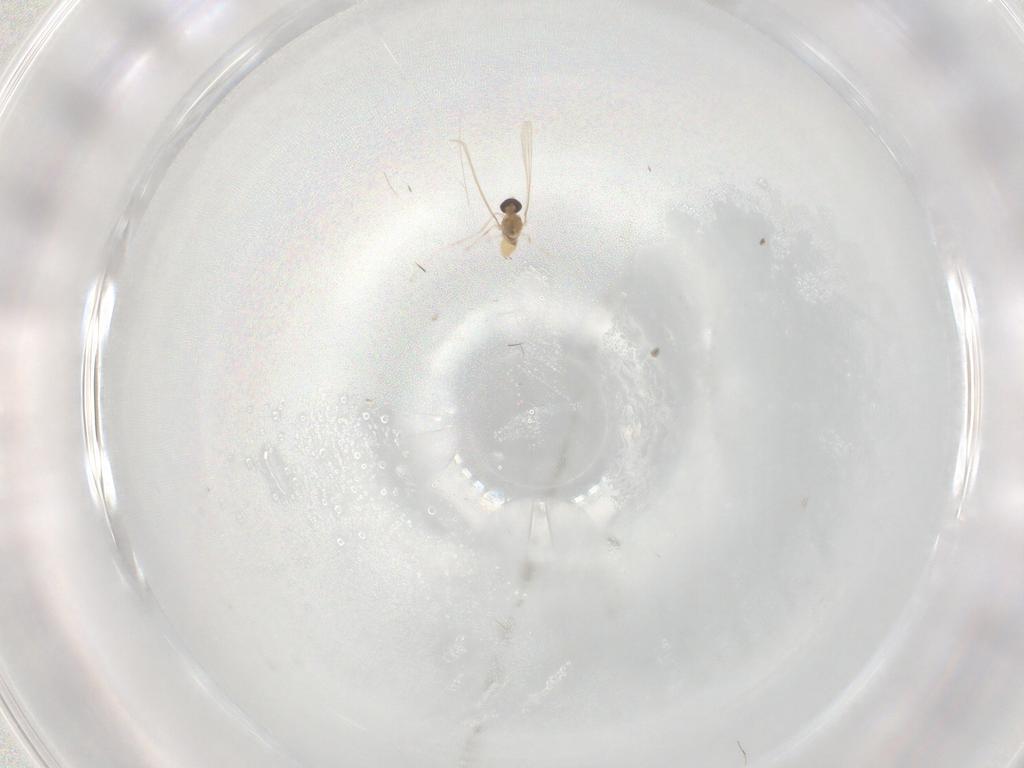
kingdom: Animalia
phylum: Arthropoda
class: Insecta
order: Diptera
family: Cecidomyiidae
